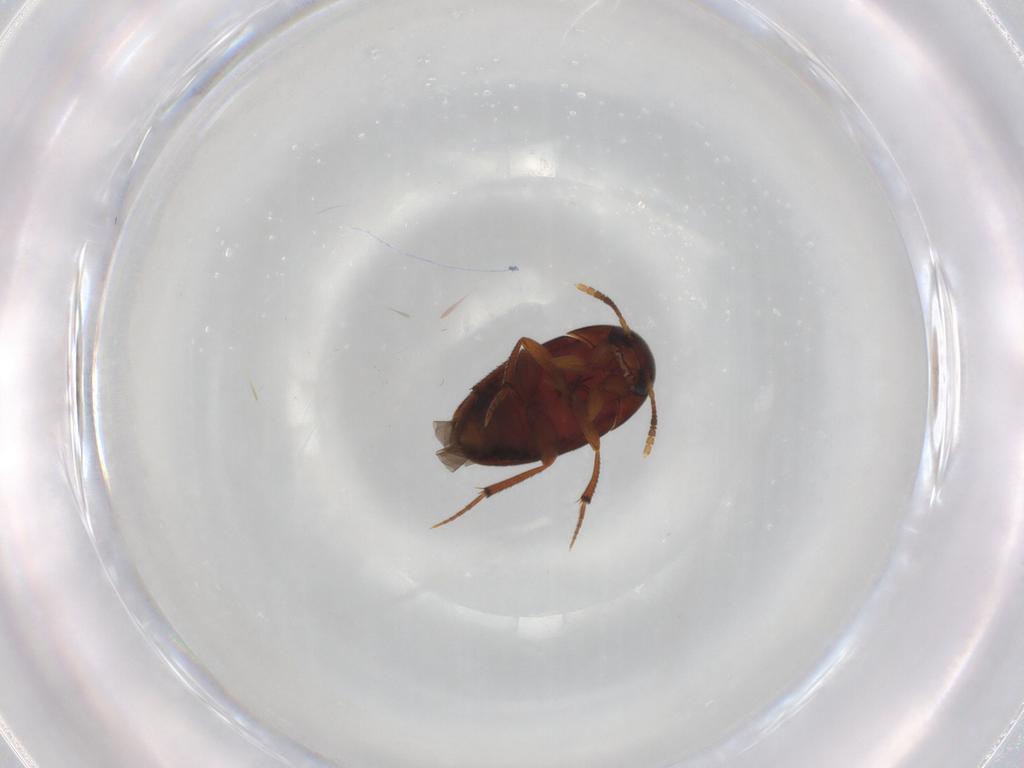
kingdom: Animalia
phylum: Arthropoda
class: Insecta
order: Coleoptera
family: Leiodidae
